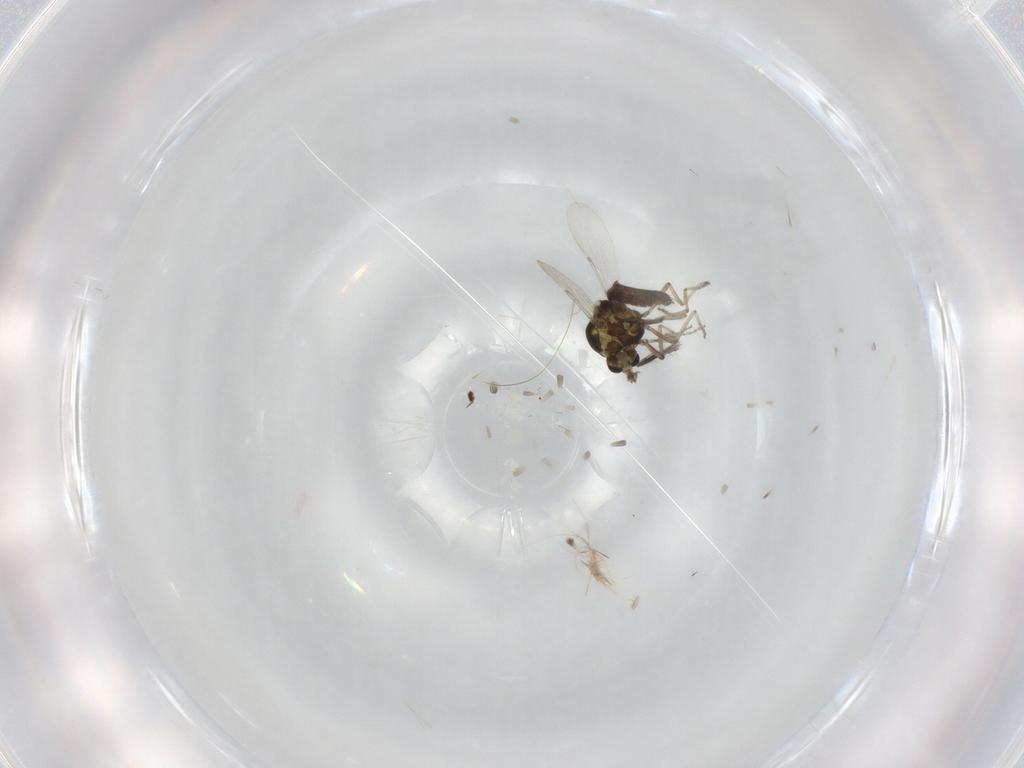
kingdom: Animalia
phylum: Arthropoda
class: Insecta
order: Diptera
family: Ceratopogonidae
